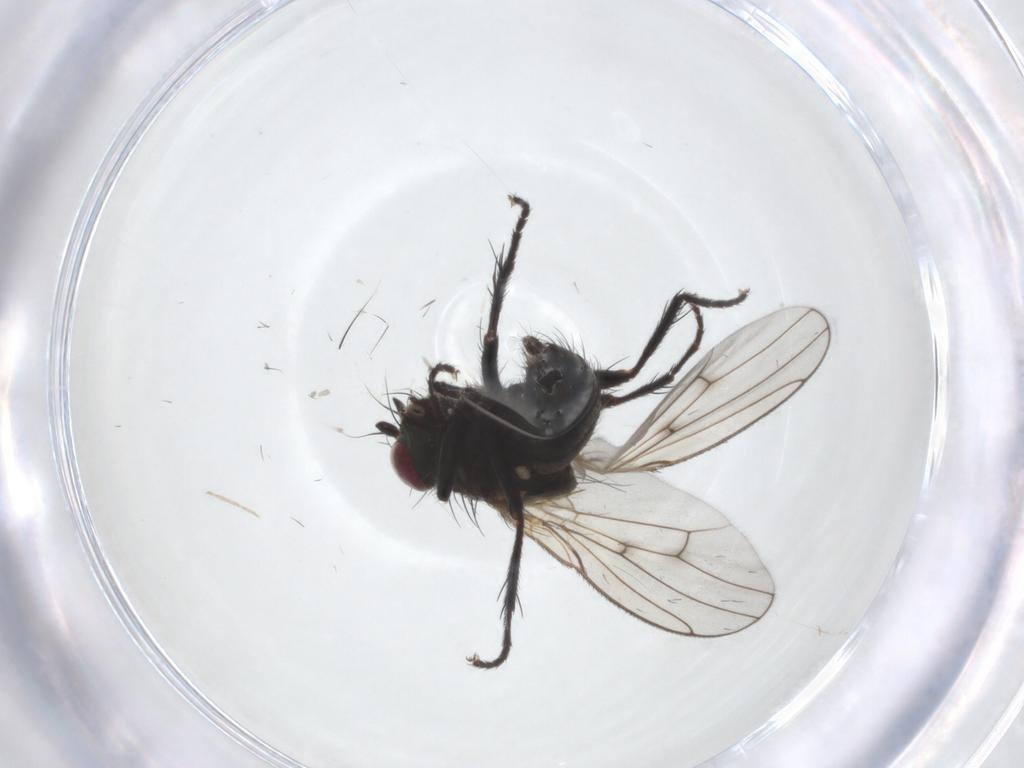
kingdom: Animalia
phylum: Arthropoda
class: Insecta
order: Diptera
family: Muscidae
